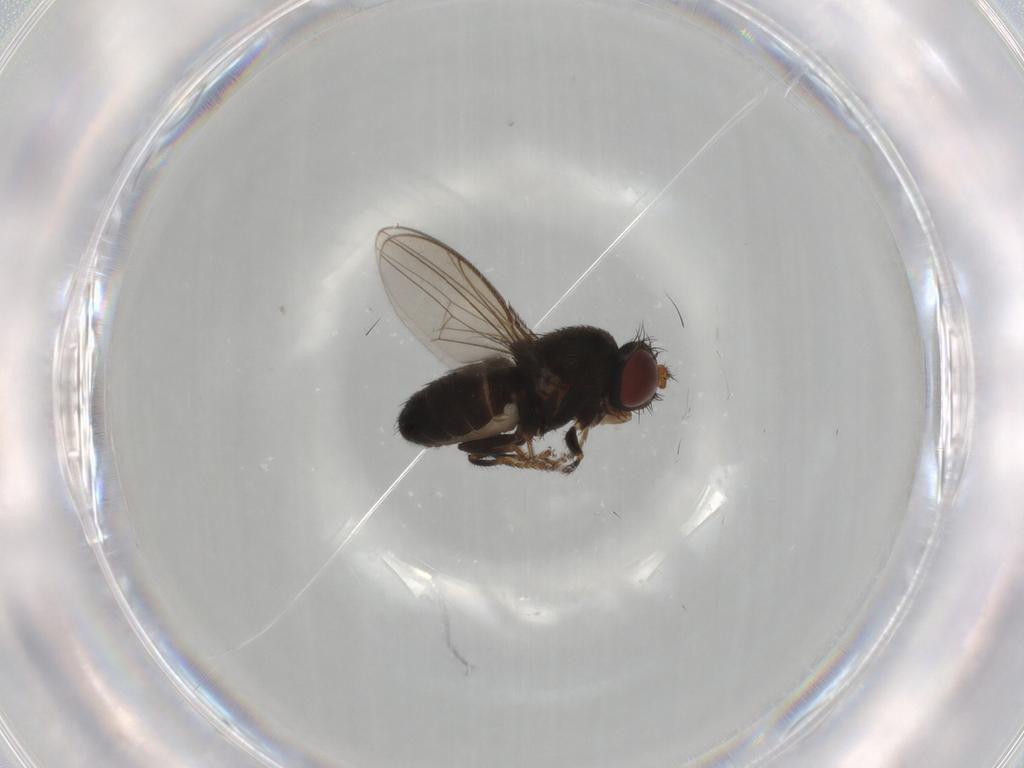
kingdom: Animalia
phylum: Arthropoda
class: Insecta
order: Diptera
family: Ephydridae
